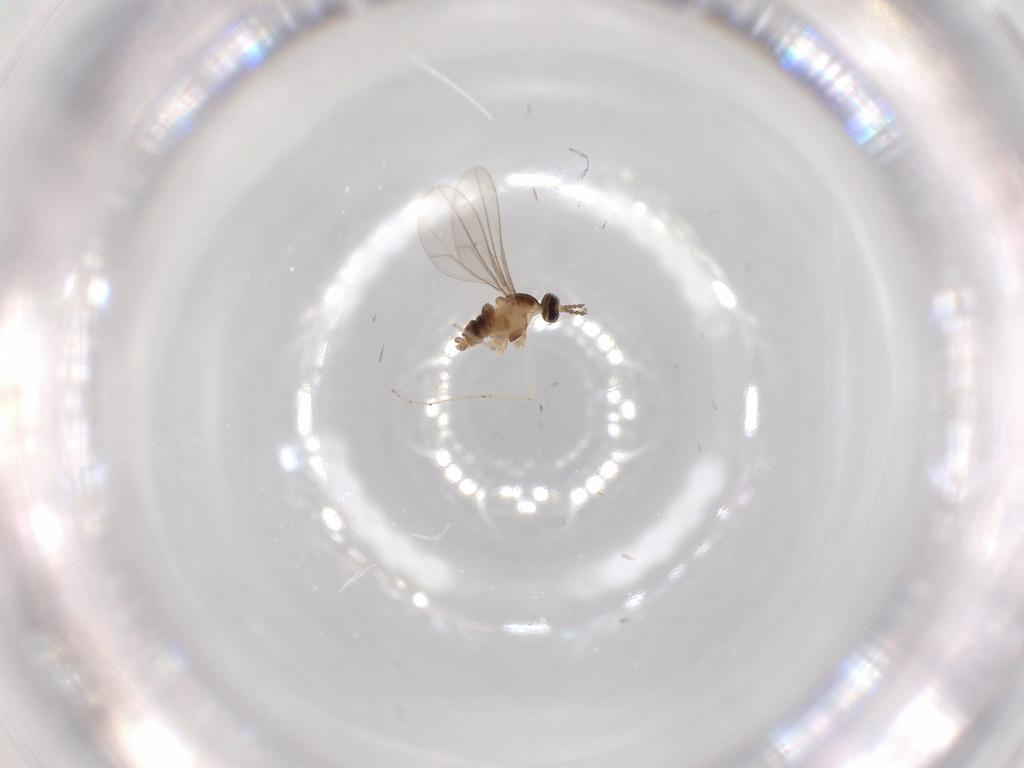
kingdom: Animalia
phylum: Arthropoda
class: Insecta
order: Diptera
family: Cecidomyiidae
